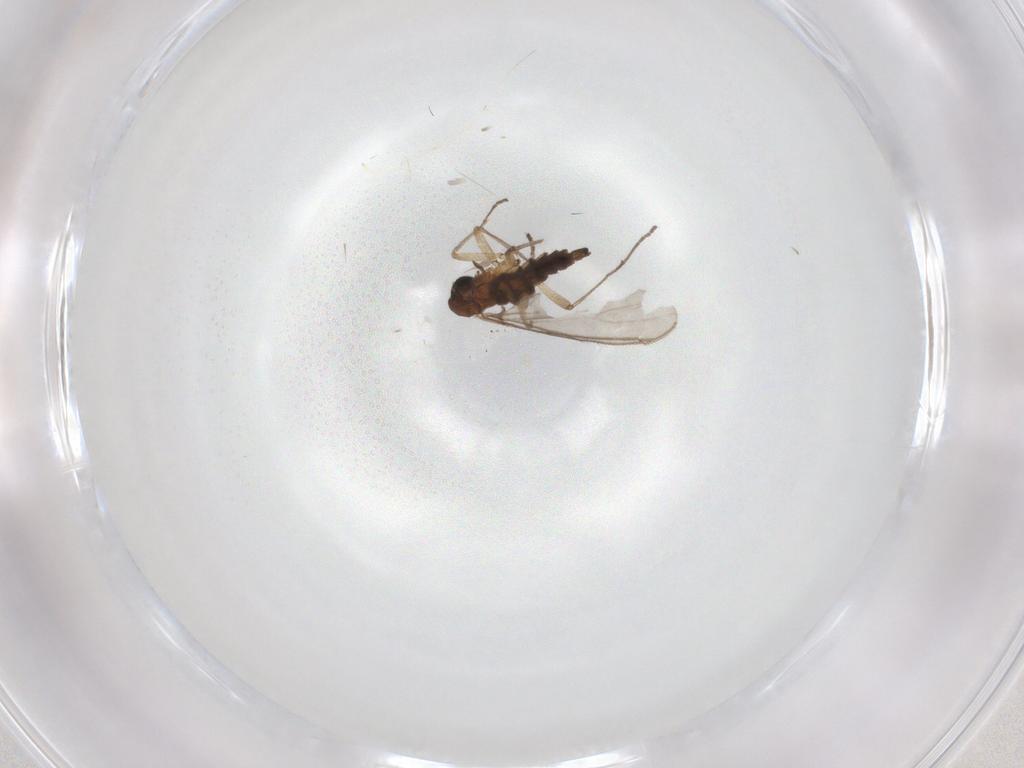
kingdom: Animalia
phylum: Arthropoda
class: Insecta
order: Diptera
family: Sciaridae
